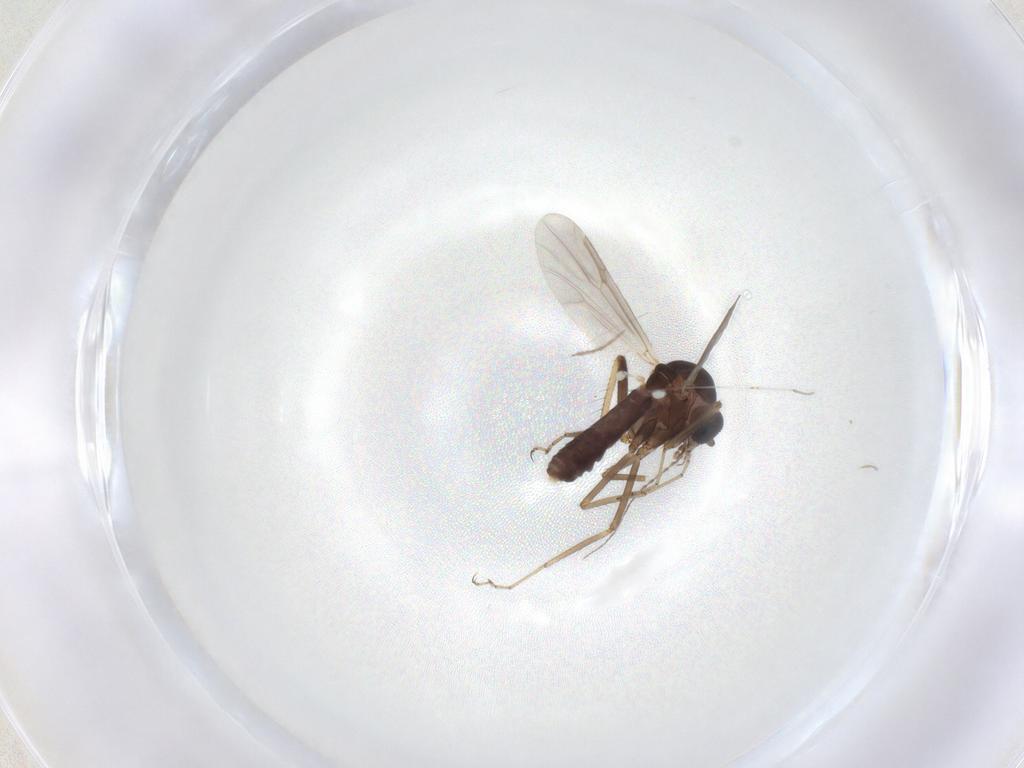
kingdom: Animalia
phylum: Arthropoda
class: Insecta
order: Diptera
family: Ceratopogonidae
